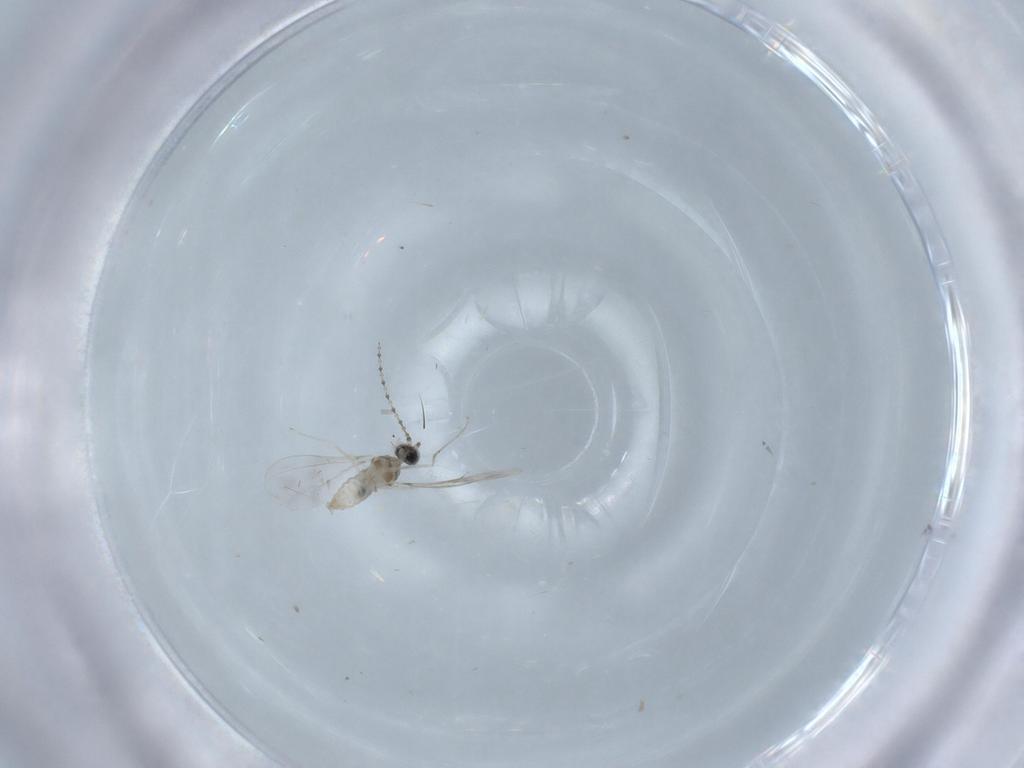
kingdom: Animalia
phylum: Arthropoda
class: Insecta
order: Diptera
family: Cecidomyiidae
